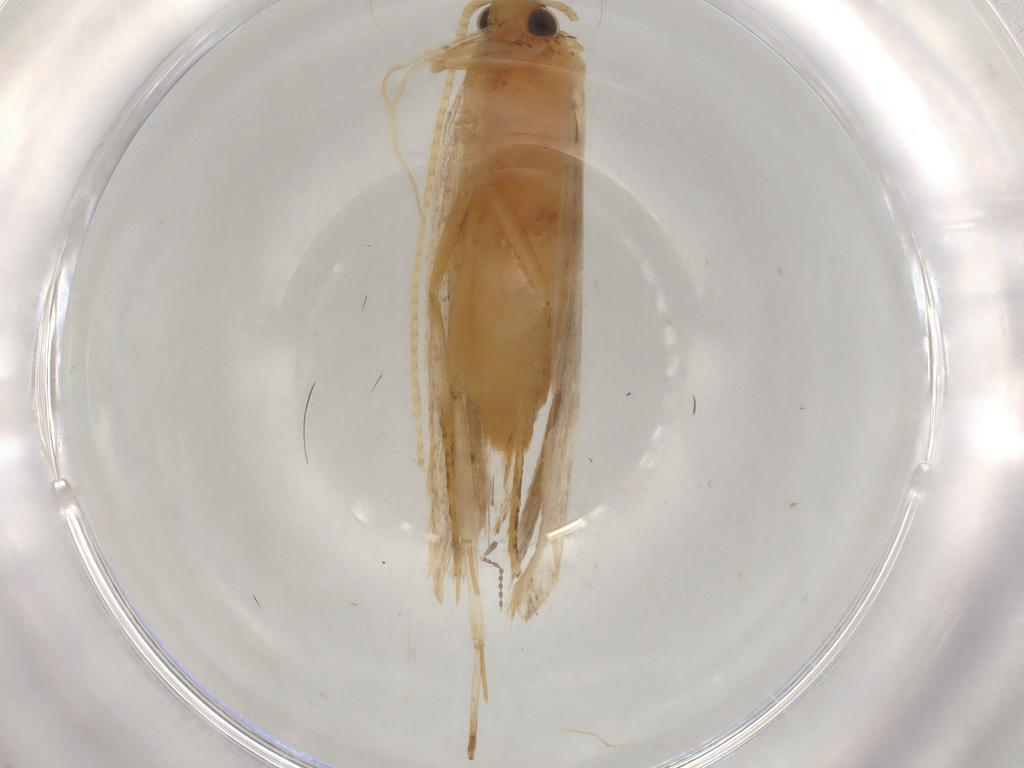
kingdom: Animalia
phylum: Arthropoda
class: Insecta
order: Lepidoptera
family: Lecithoceridae
